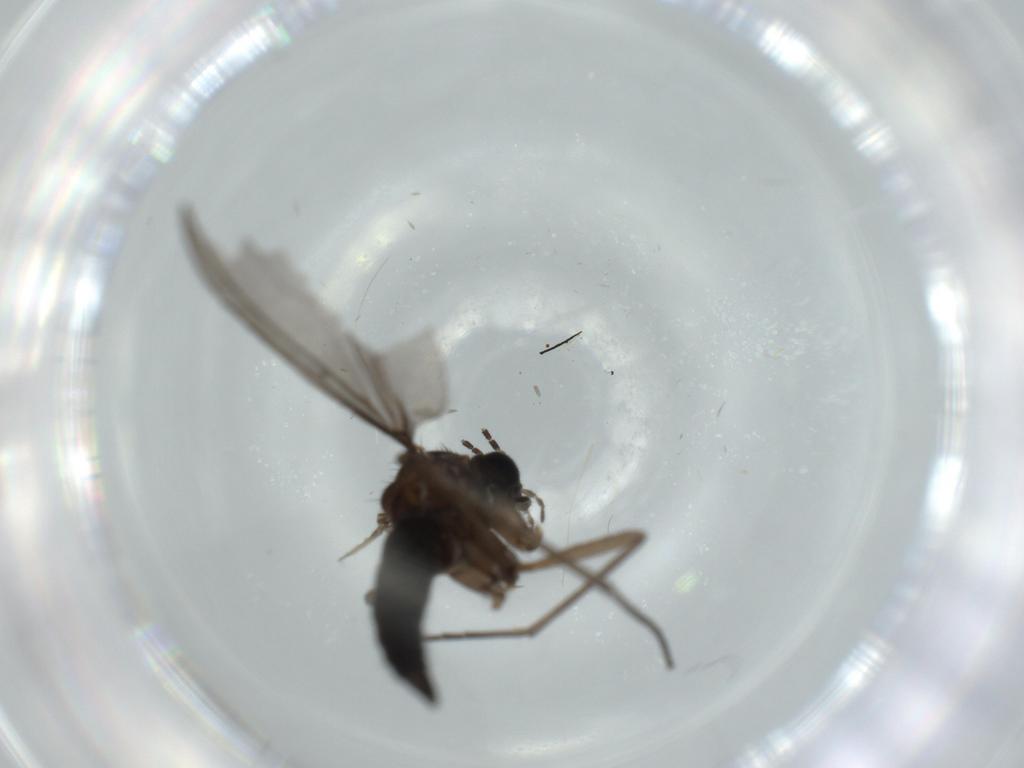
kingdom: Animalia
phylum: Arthropoda
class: Insecta
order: Diptera
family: Sciaridae
